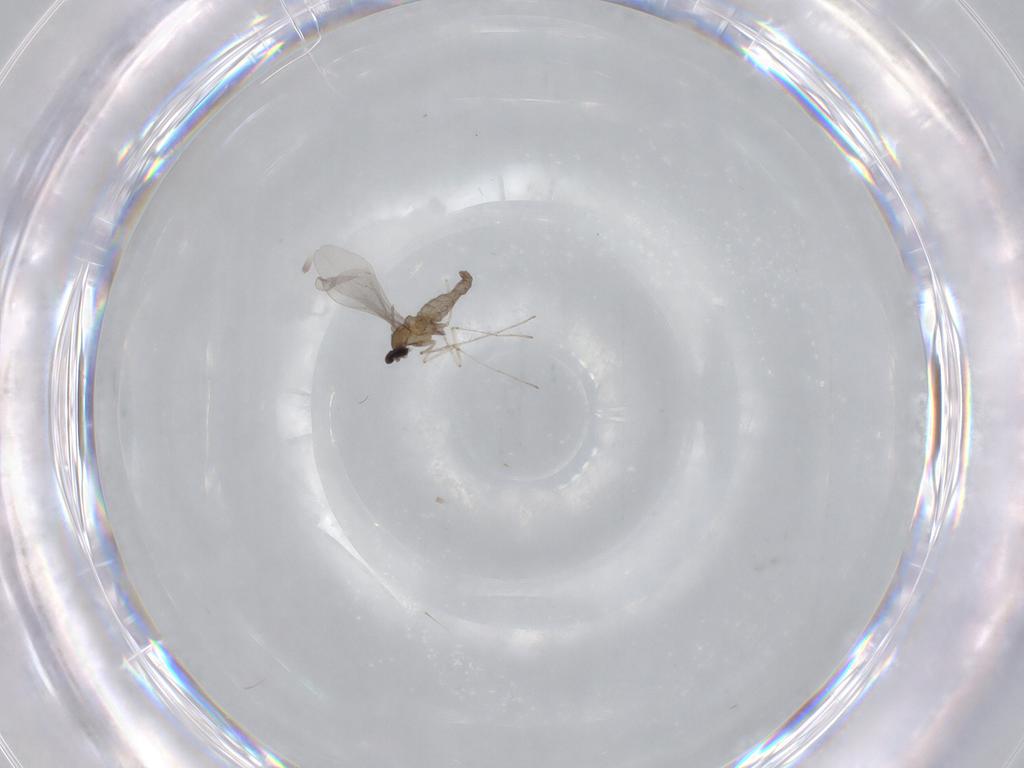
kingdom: Animalia
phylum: Arthropoda
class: Insecta
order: Diptera
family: Cecidomyiidae
